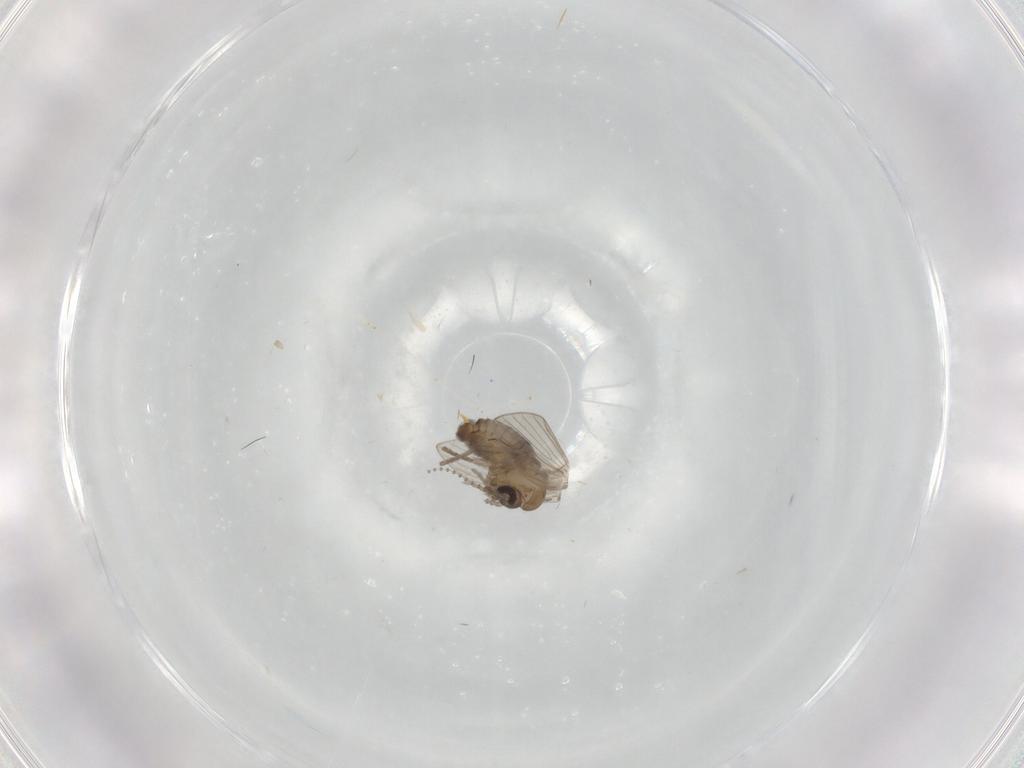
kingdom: Animalia
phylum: Arthropoda
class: Insecta
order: Diptera
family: Psychodidae
